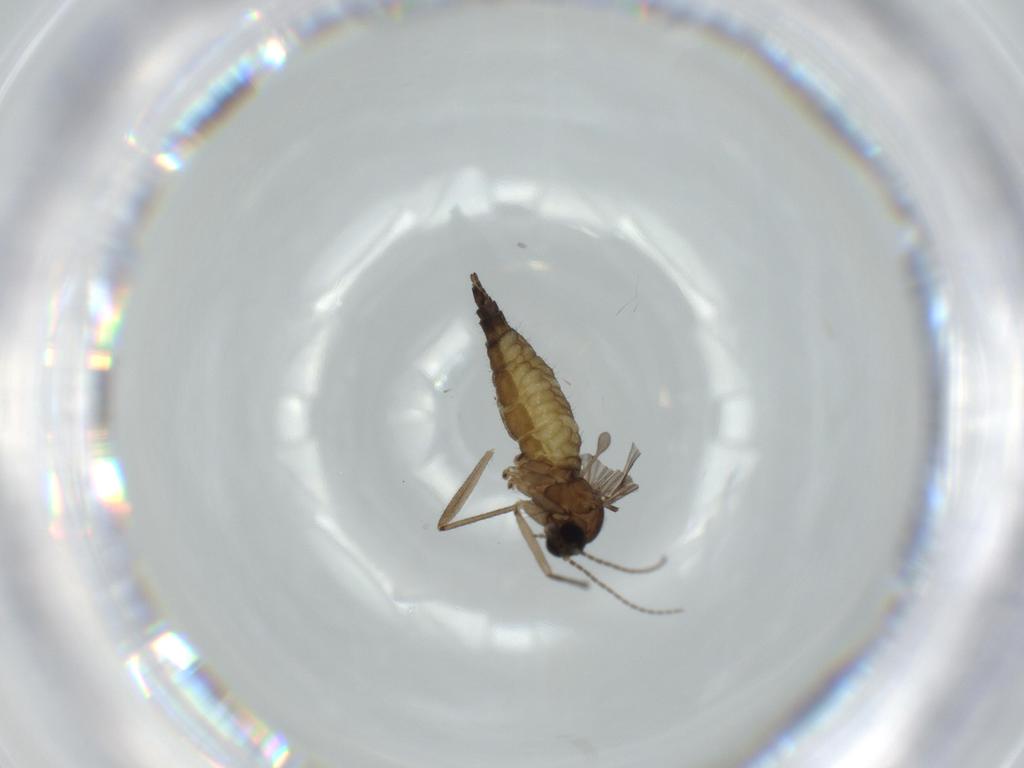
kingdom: Animalia
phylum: Arthropoda
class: Insecta
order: Diptera
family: Sciaridae
